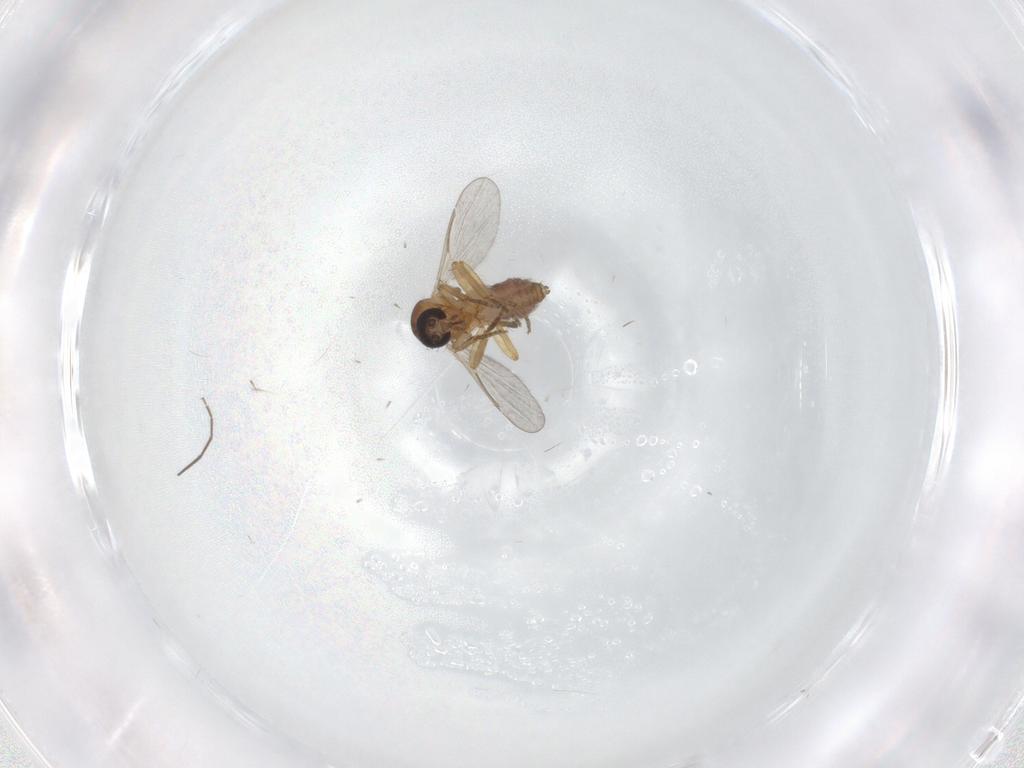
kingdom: Animalia
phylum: Arthropoda
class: Insecta
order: Diptera
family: Ceratopogonidae
